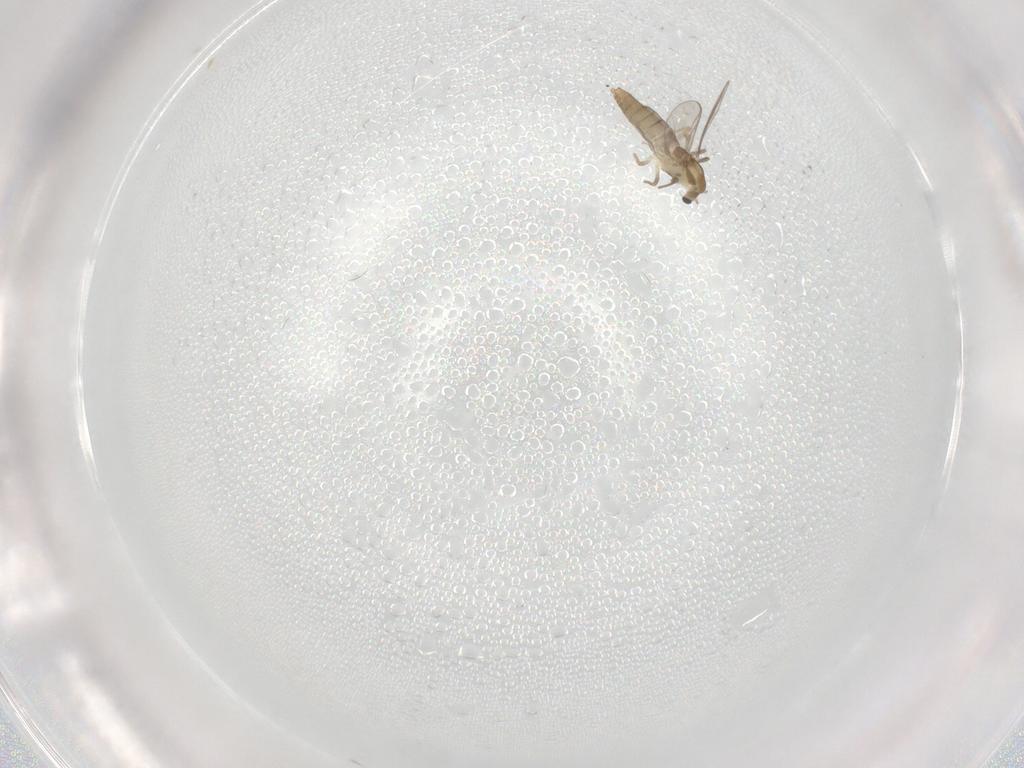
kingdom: Animalia
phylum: Arthropoda
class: Insecta
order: Diptera
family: Chironomidae
